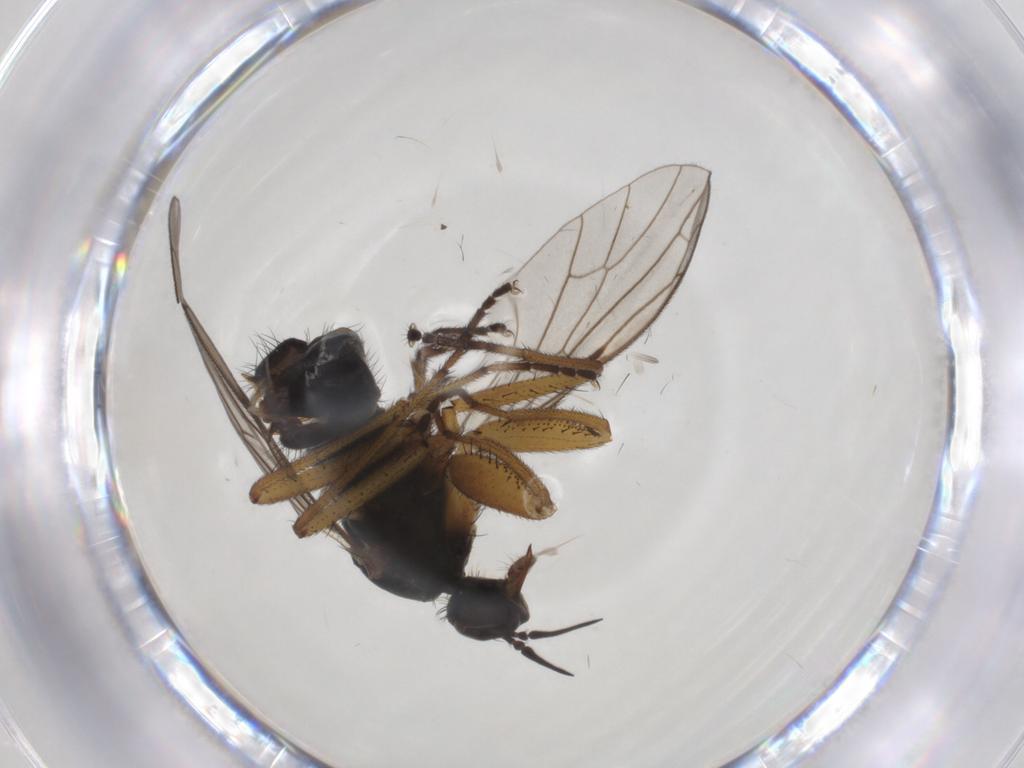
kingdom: Animalia
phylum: Arthropoda
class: Insecta
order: Diptera
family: Empididae
